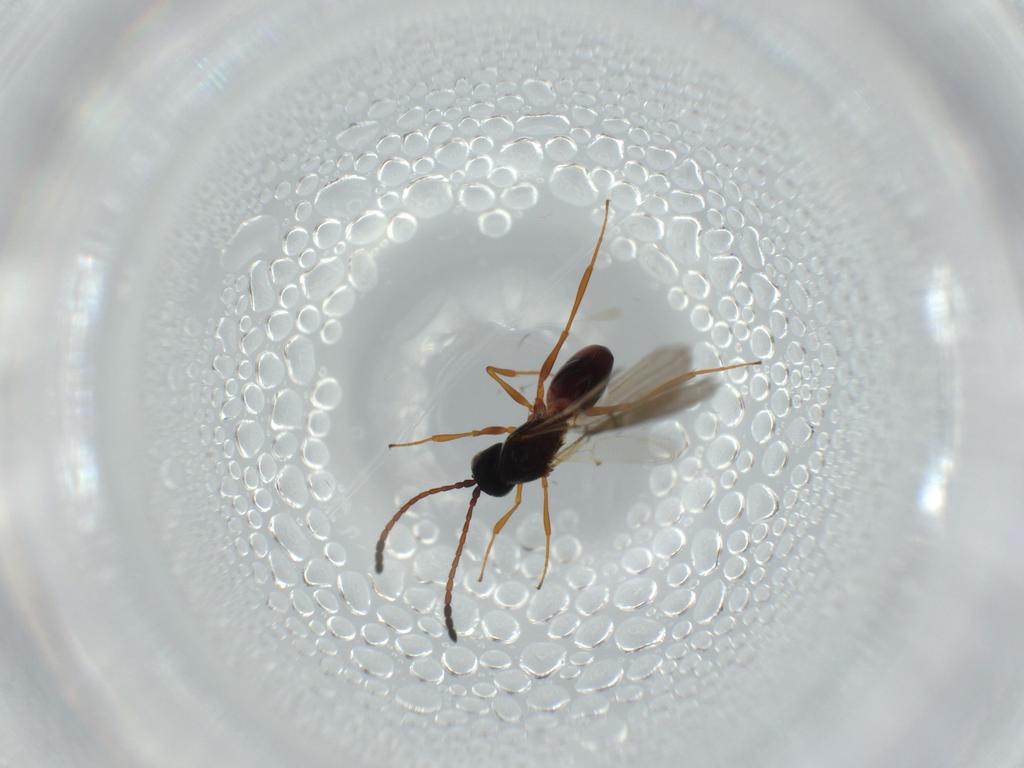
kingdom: Animalia
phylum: Arthropoda
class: Insecta
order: Hymenoptera
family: Figitidae
